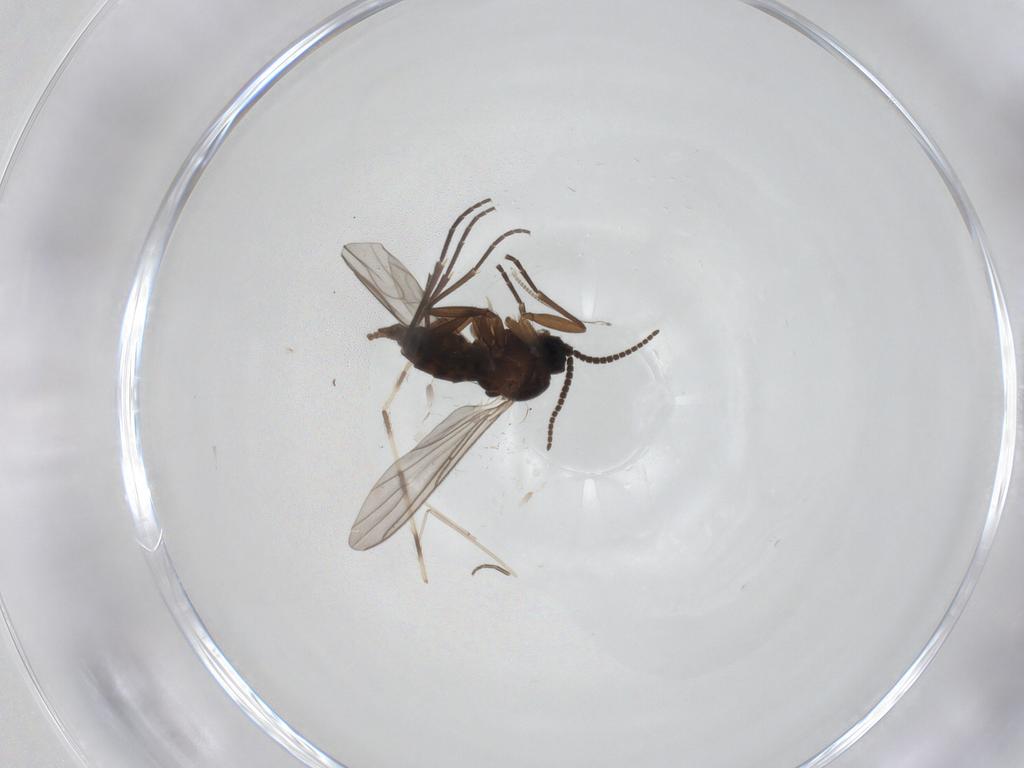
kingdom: Animalia
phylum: Arthropoda
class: Insecta
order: Diptera
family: Sciaridae
